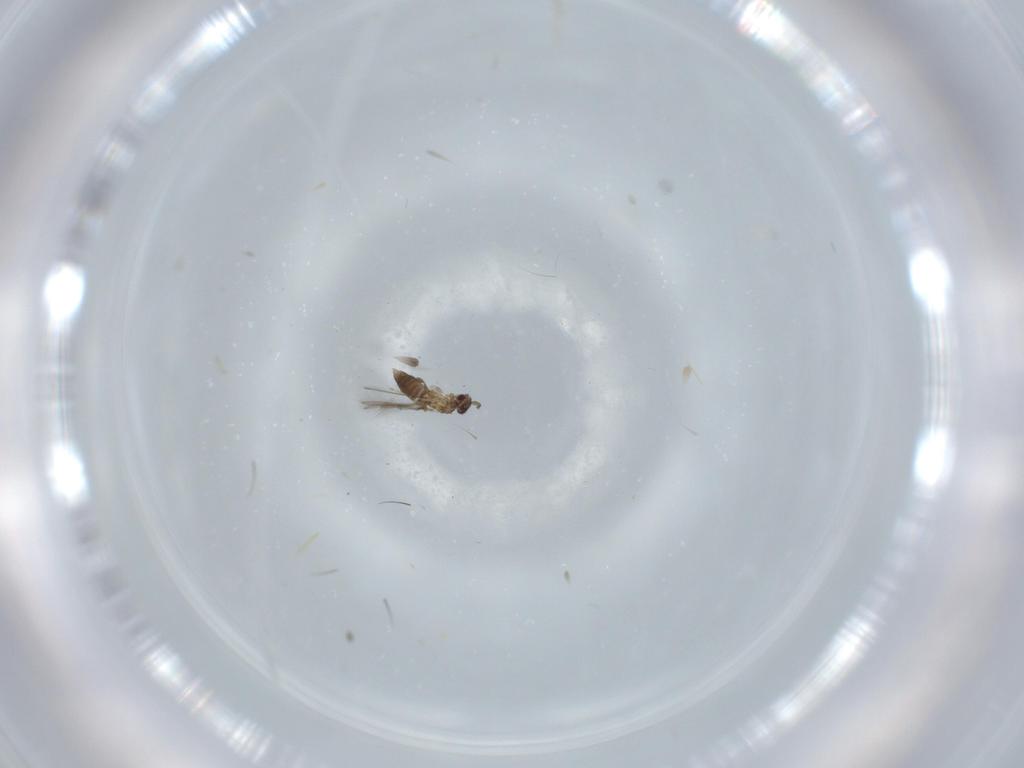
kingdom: Animalia
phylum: Arthropoda
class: Insecta
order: Hymenoptera
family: Mymaridae
